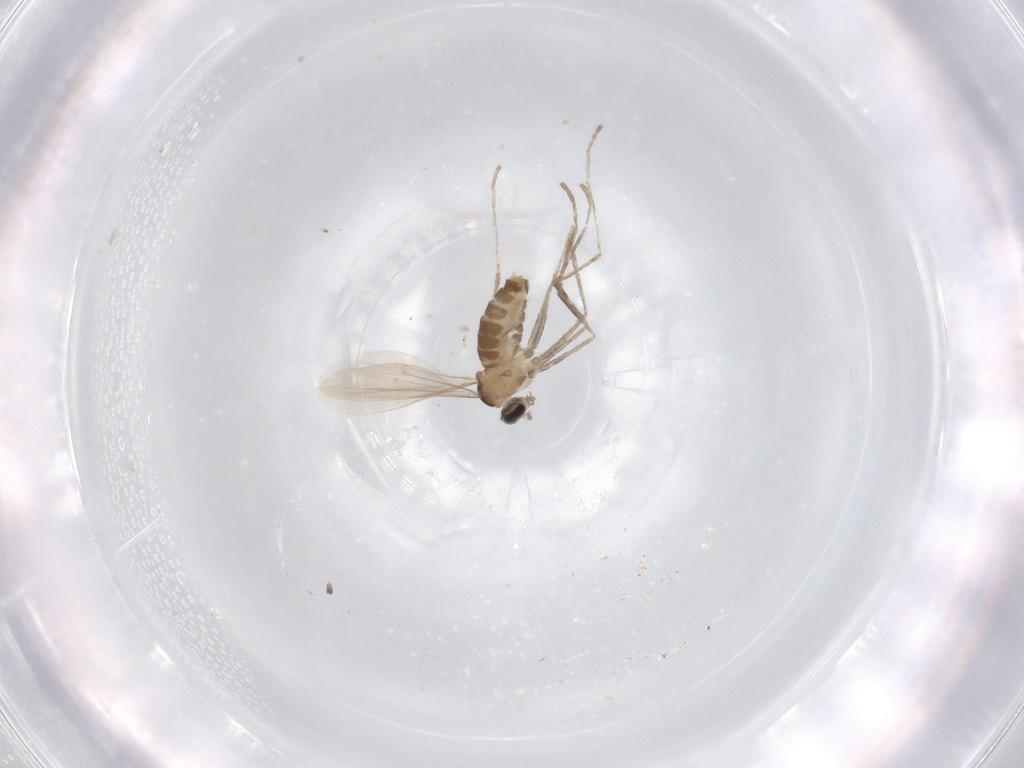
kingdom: Animalia
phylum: Arthropoda
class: Insecta
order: Diptera
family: Cecidomyiidae
